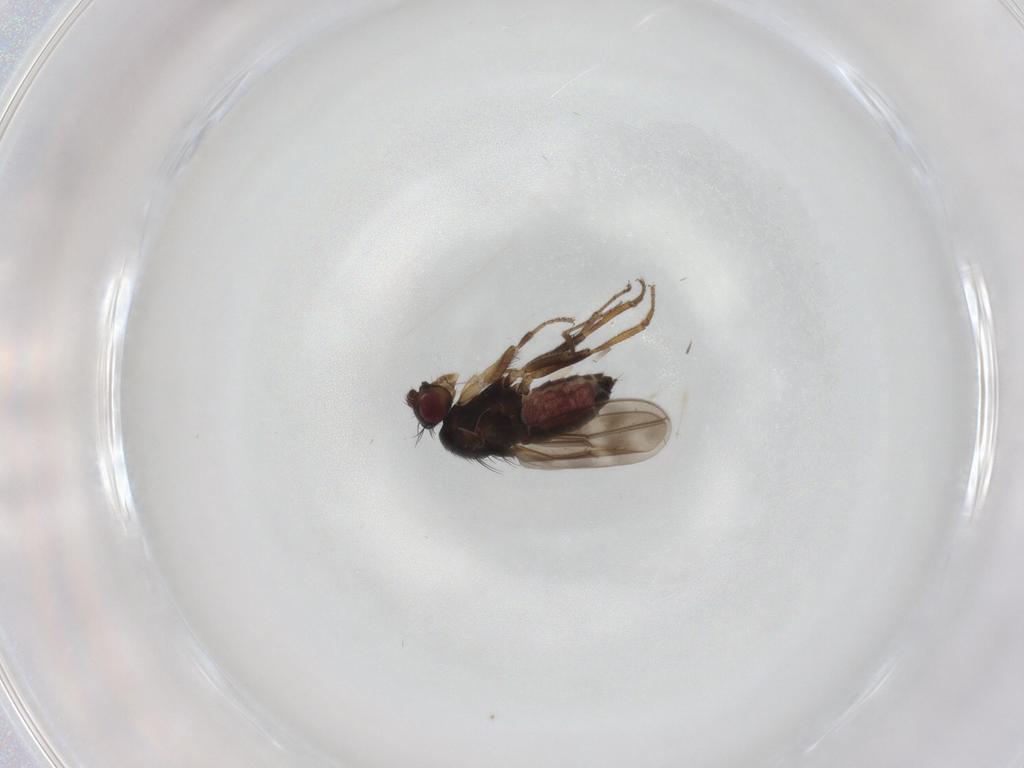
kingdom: Animalia
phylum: Arthropoda
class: Insecta
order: Diptera
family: Sphaeroceridae
